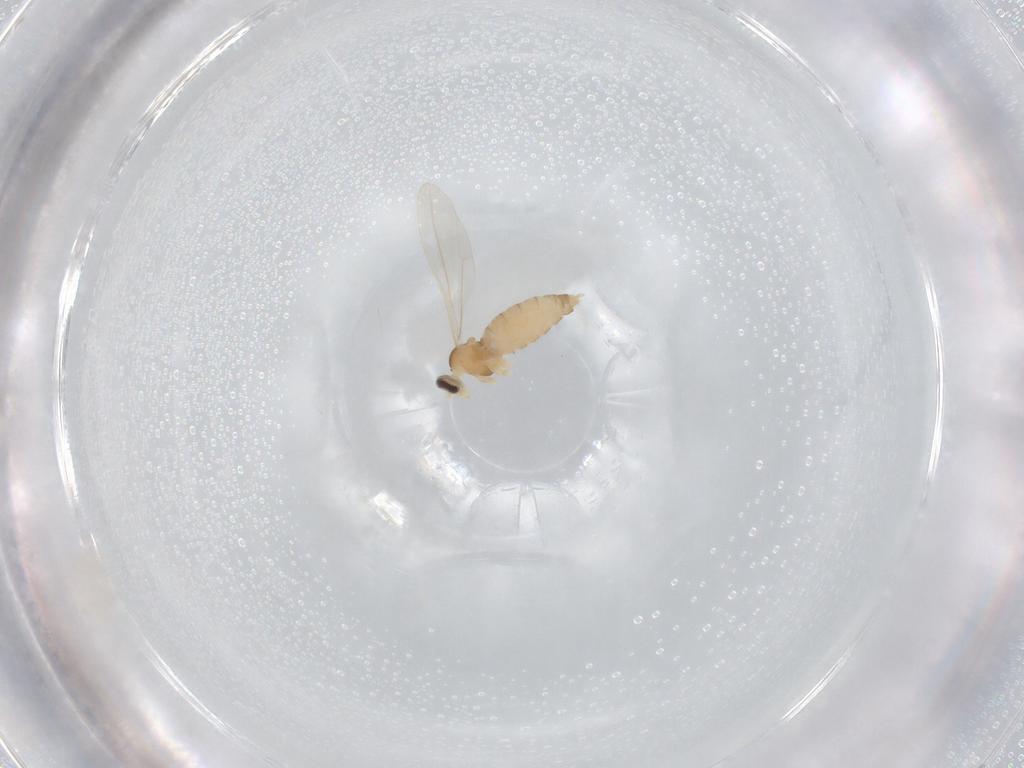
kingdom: Animalia
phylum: Arthropoda
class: Insecta
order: Diptera
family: Cecidomyiidae
